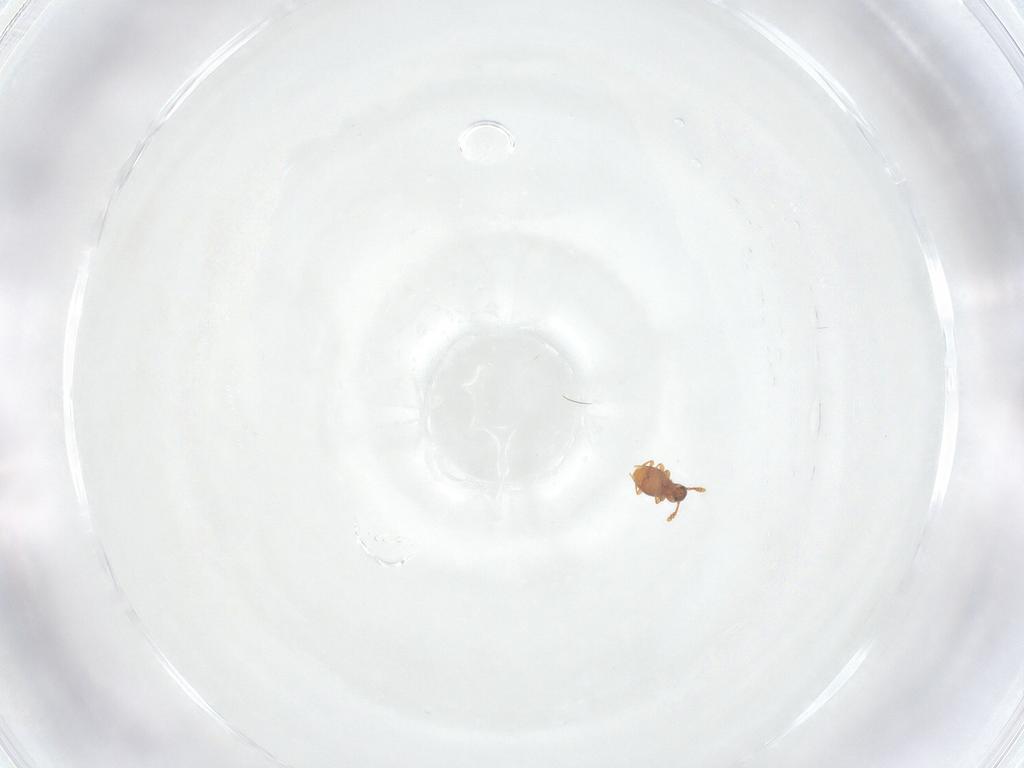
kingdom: Animalia
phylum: Arthropoda
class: Insecta
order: Coleoptera
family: Staphylinidae
